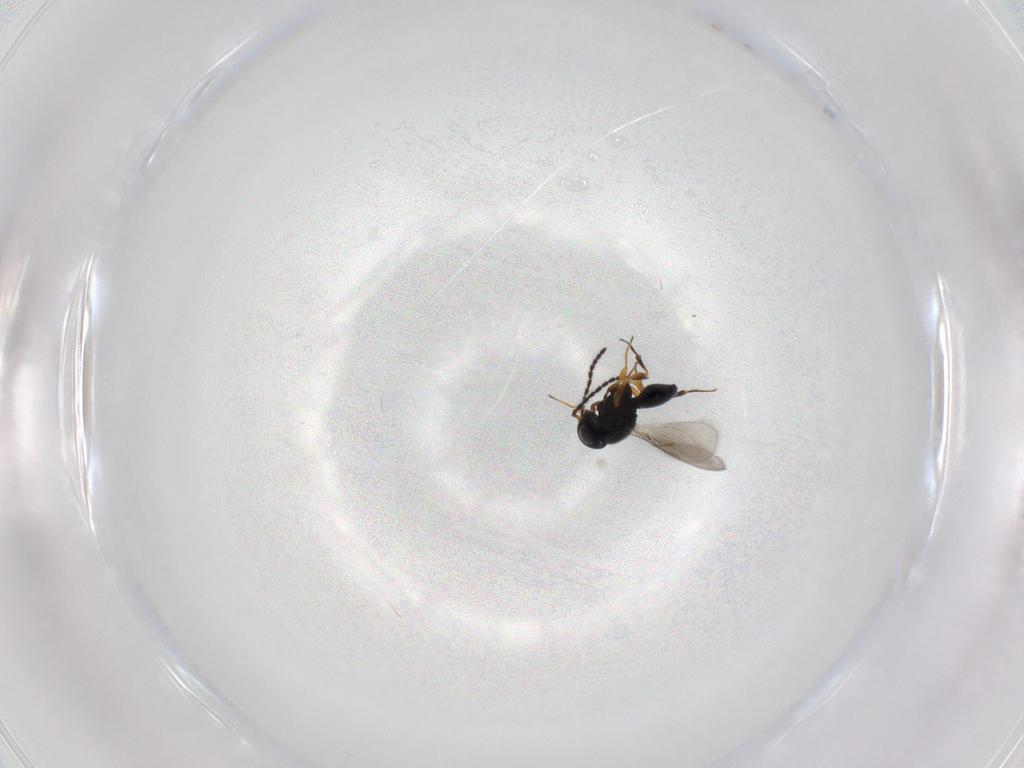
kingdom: Animalia
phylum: Arthropoda
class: Insecta
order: Hymenoptera
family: Scelionidae
